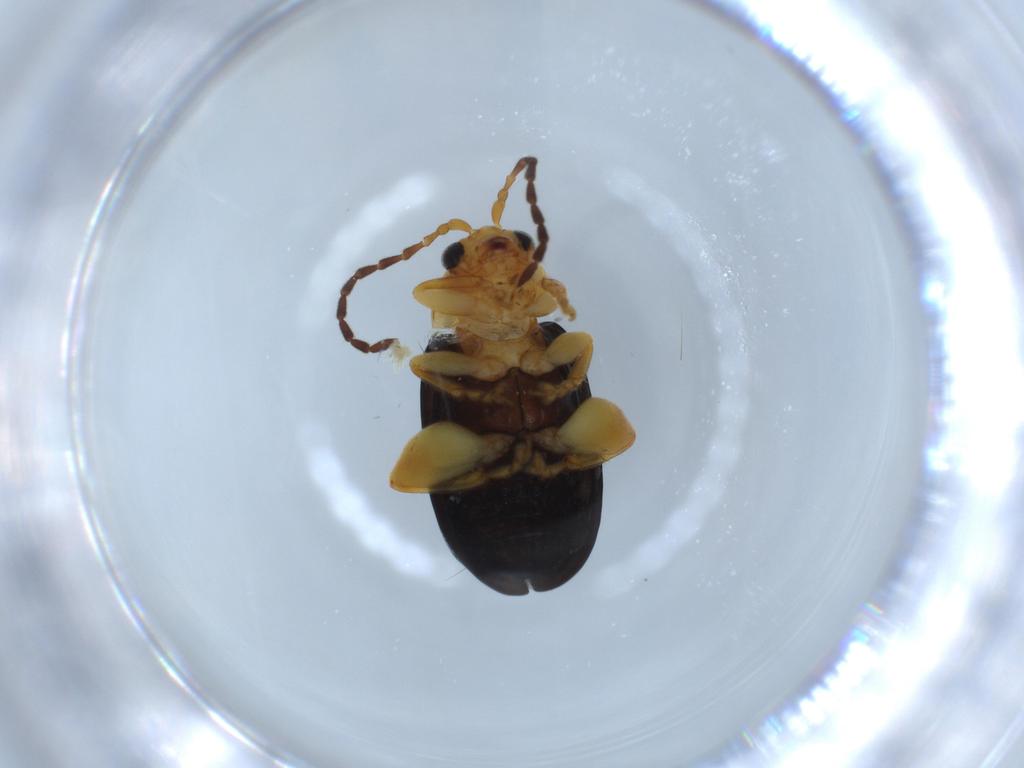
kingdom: Animalia
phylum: Arthropoda
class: Insecta
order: Coleoptera
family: Chrysomelidae
